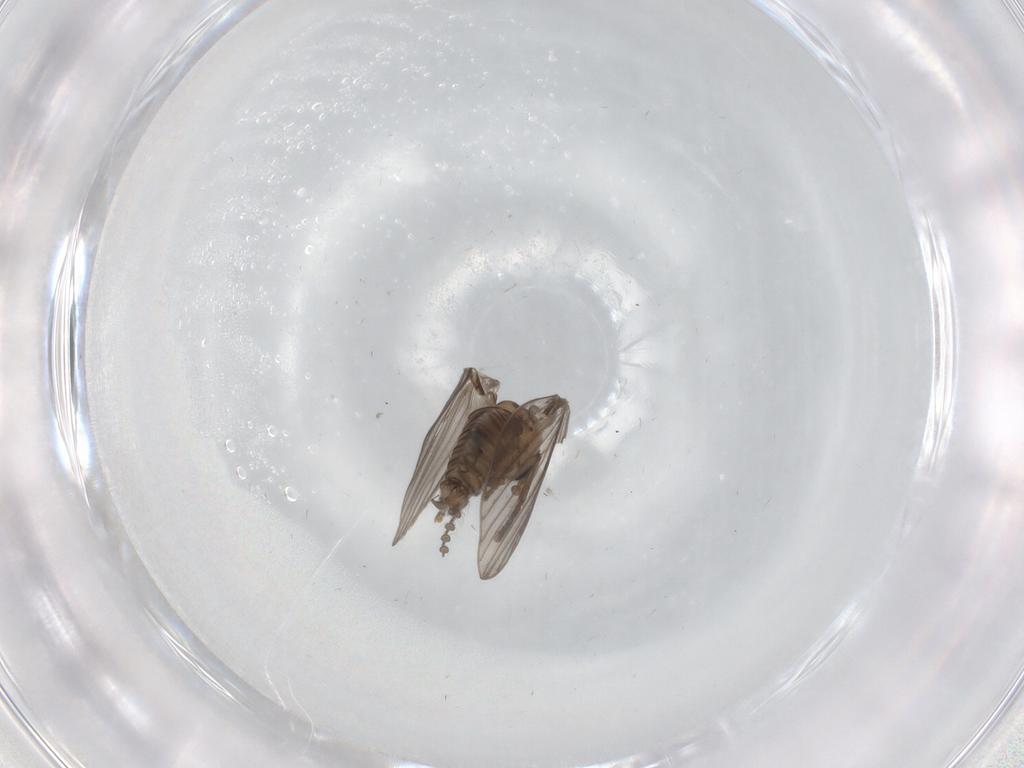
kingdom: Animalia
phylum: Arthropoda
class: Insecta
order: Diptera
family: Psychodidae
